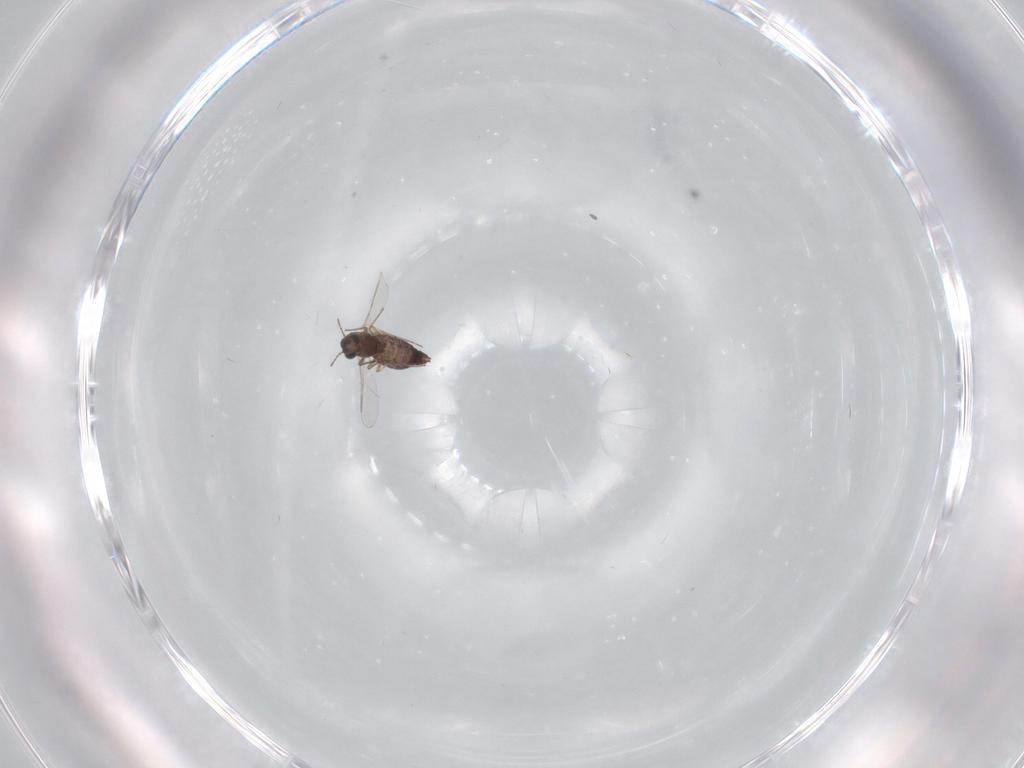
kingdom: Animalia
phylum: Arthropoda
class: Insecta
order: Diptera
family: Chironomidae
